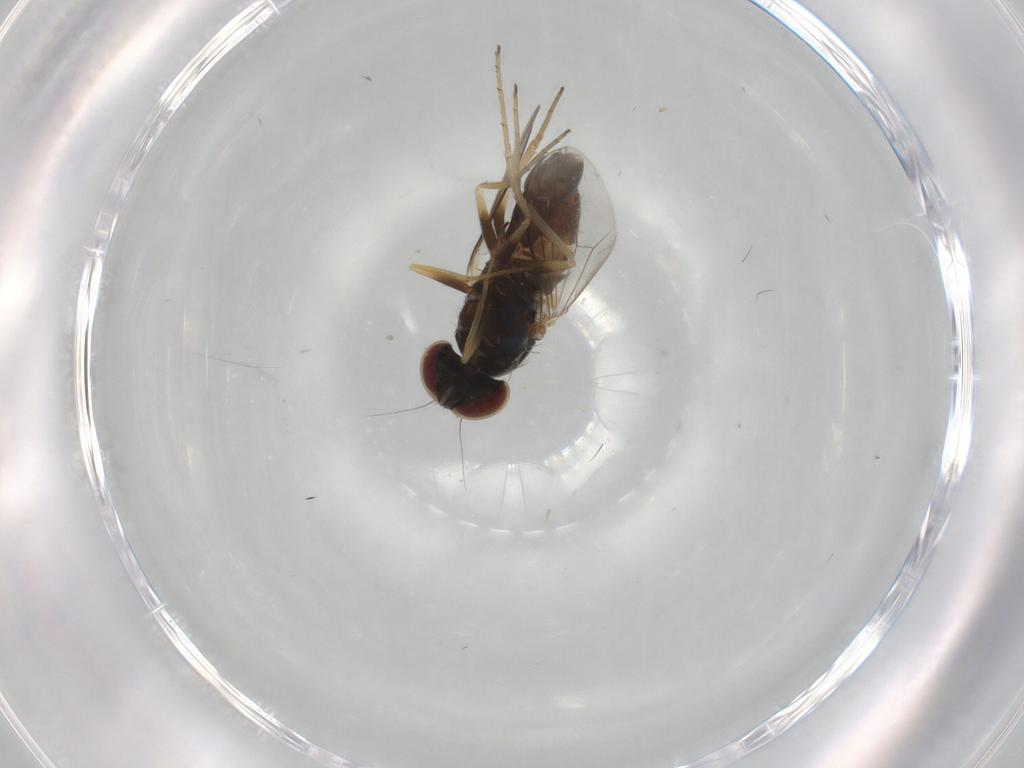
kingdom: Animalia
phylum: Arthropoda
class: Insecta
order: Diptera
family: Dolichopodidae
